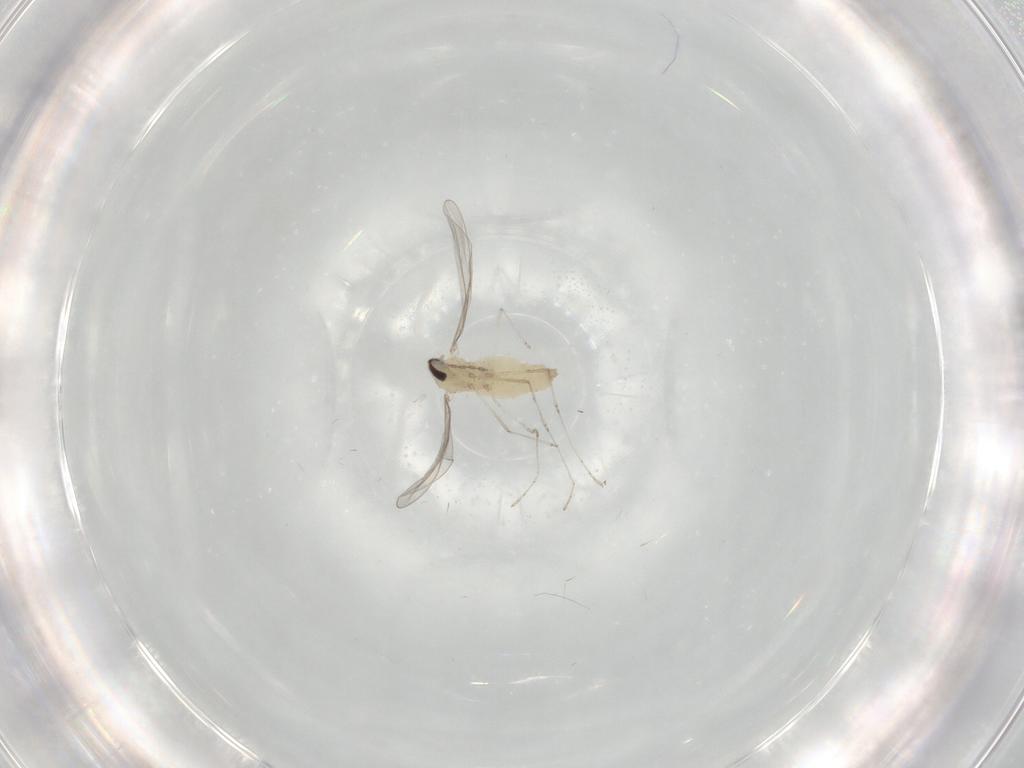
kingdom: Animalia
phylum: Arthropoda
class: Insecta
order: Diptera
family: Cecidomyiidae
